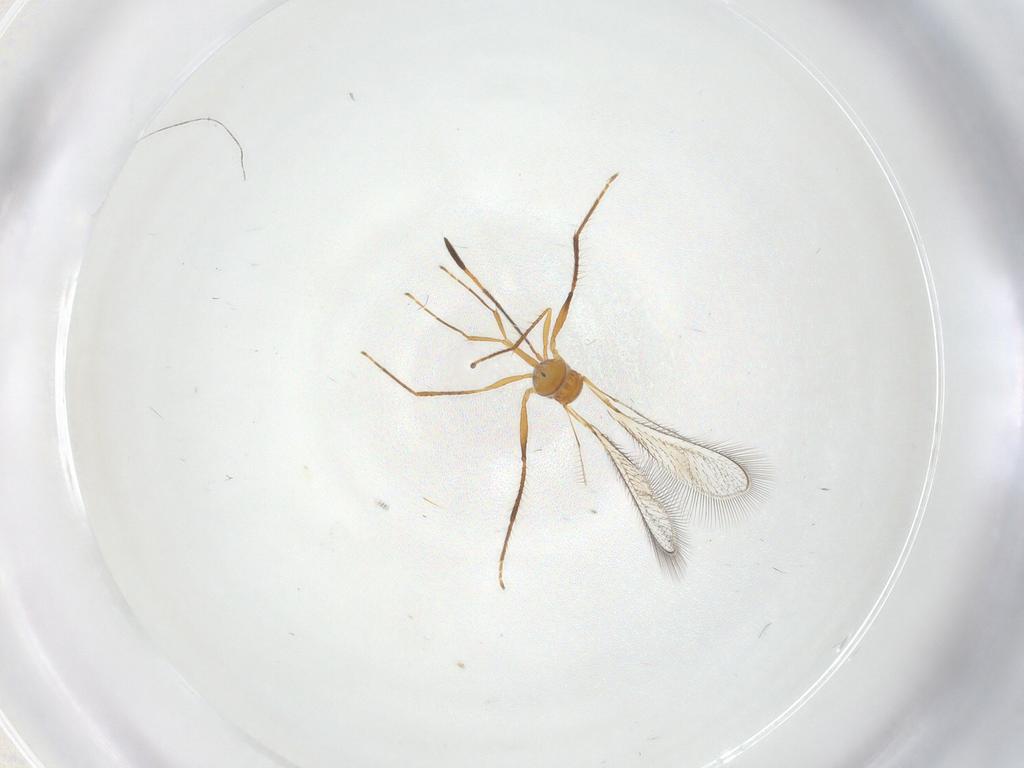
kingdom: Animalia
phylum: Arthropoda
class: Insecta
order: Hymenoptera
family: Mymaridae
